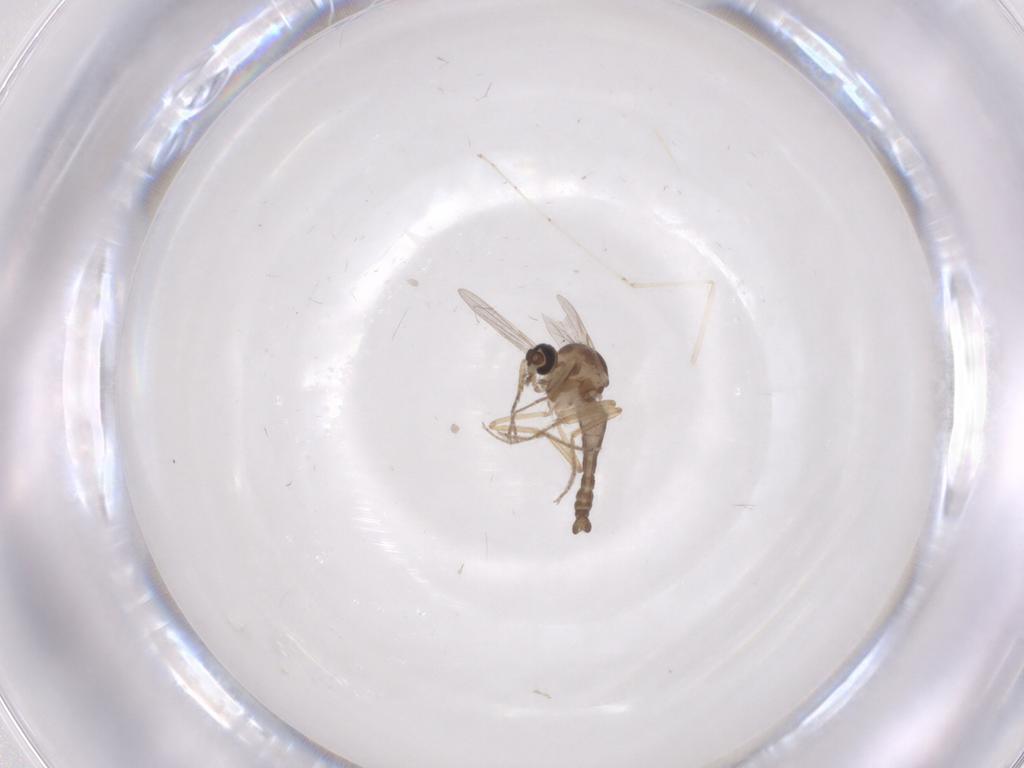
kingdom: Animalia
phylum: Arthropoda
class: Insecta
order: Diptera
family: Ceratopogonidae
